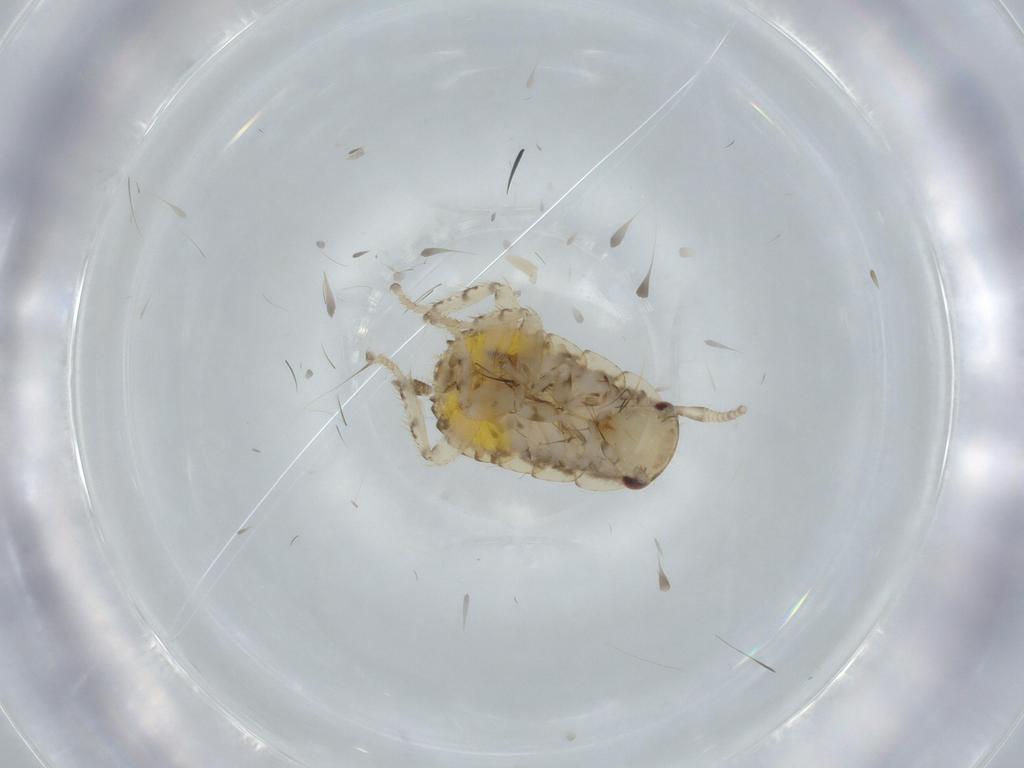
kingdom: Animalia
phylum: Arthropoda
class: Insecta
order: Blattodea
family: Ectobiidae
